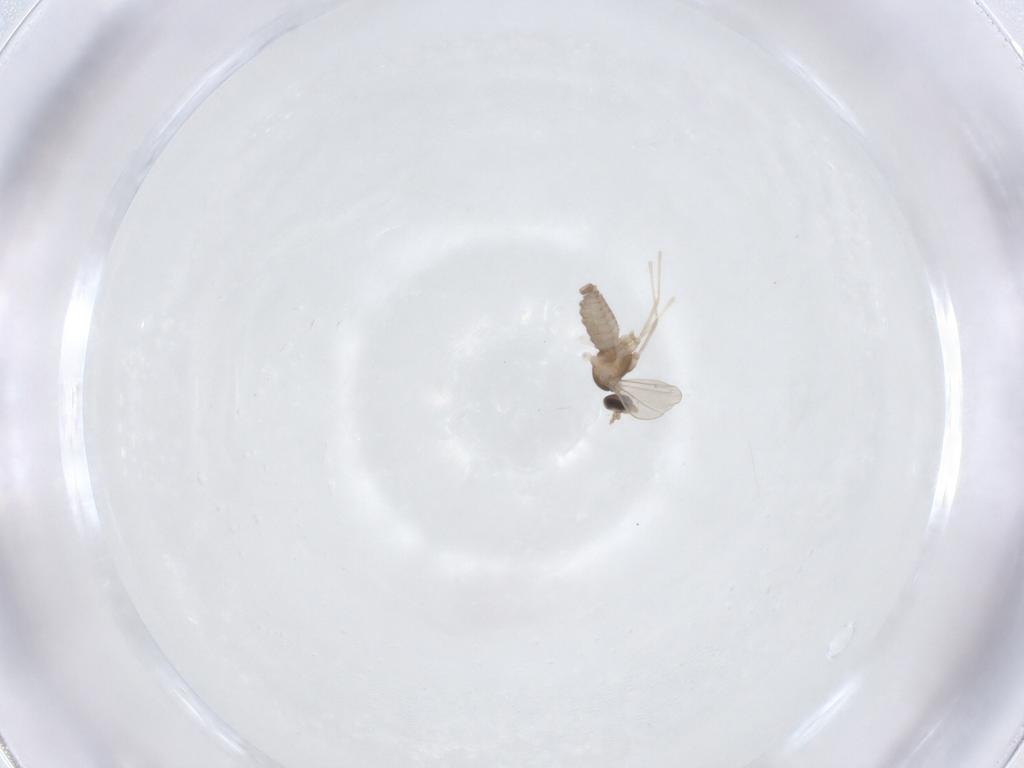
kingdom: Animalia
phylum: Arthropoda
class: Insecta
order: Diptera
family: Cecidomyiidae
